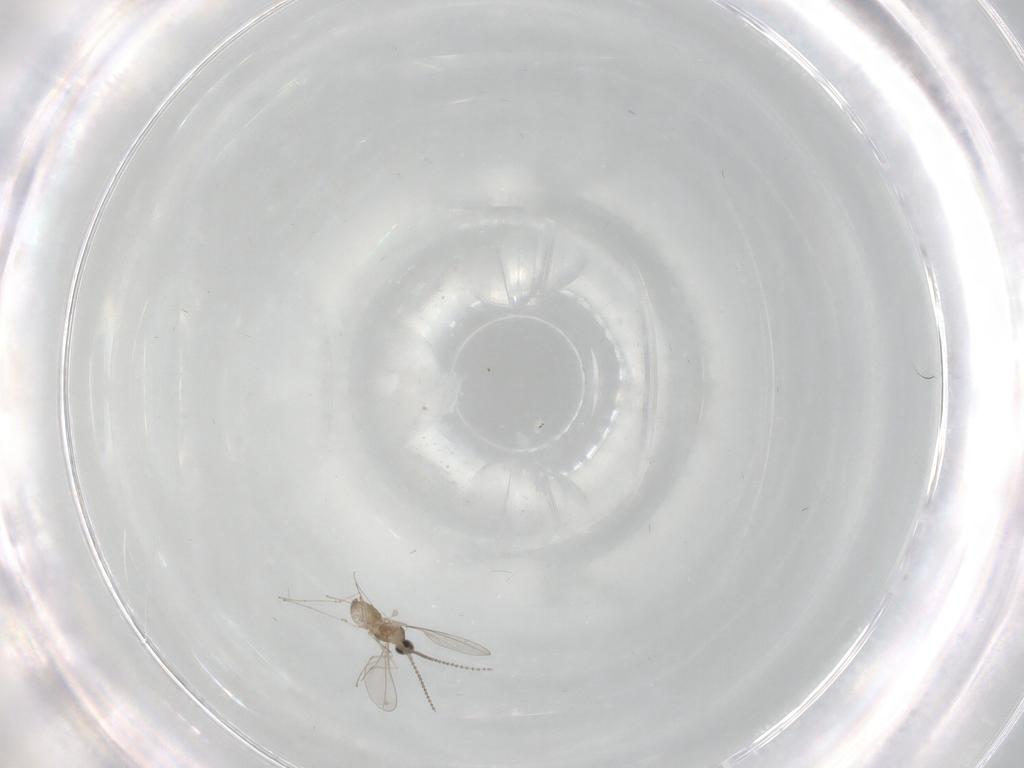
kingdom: Animalia
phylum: Arthropoda
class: Insecta
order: Diptera
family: Cecidomyiidae
